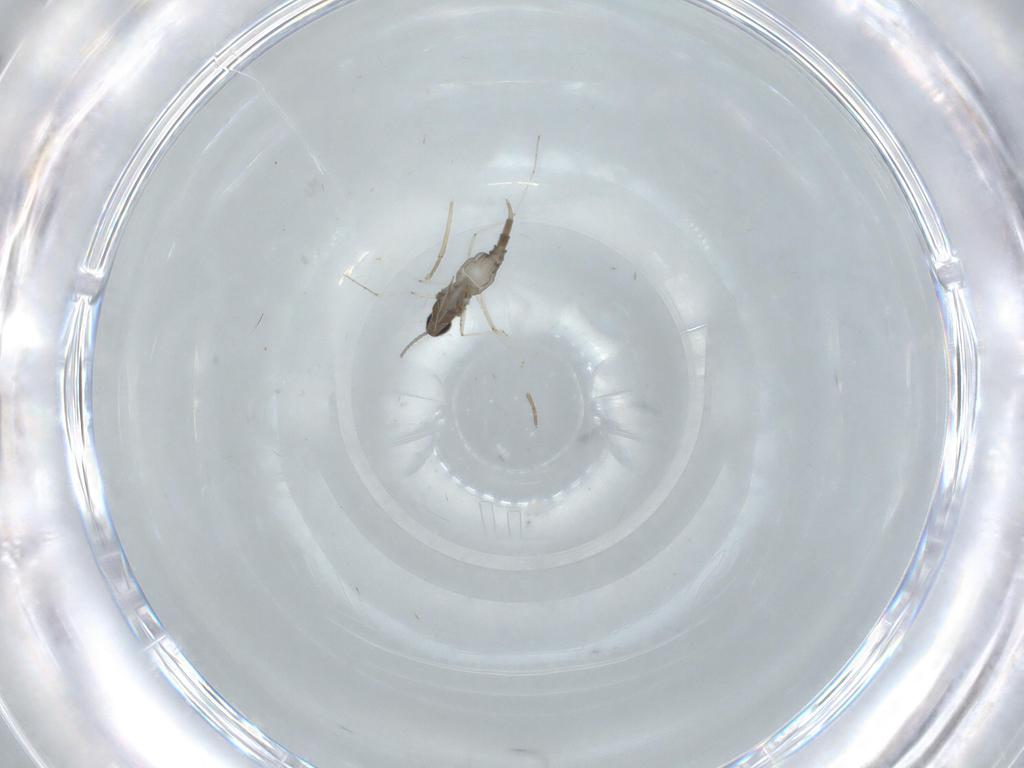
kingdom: Animalia
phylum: Arthropoda
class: Insecta
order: Diptera
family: Cecidomyiidae
